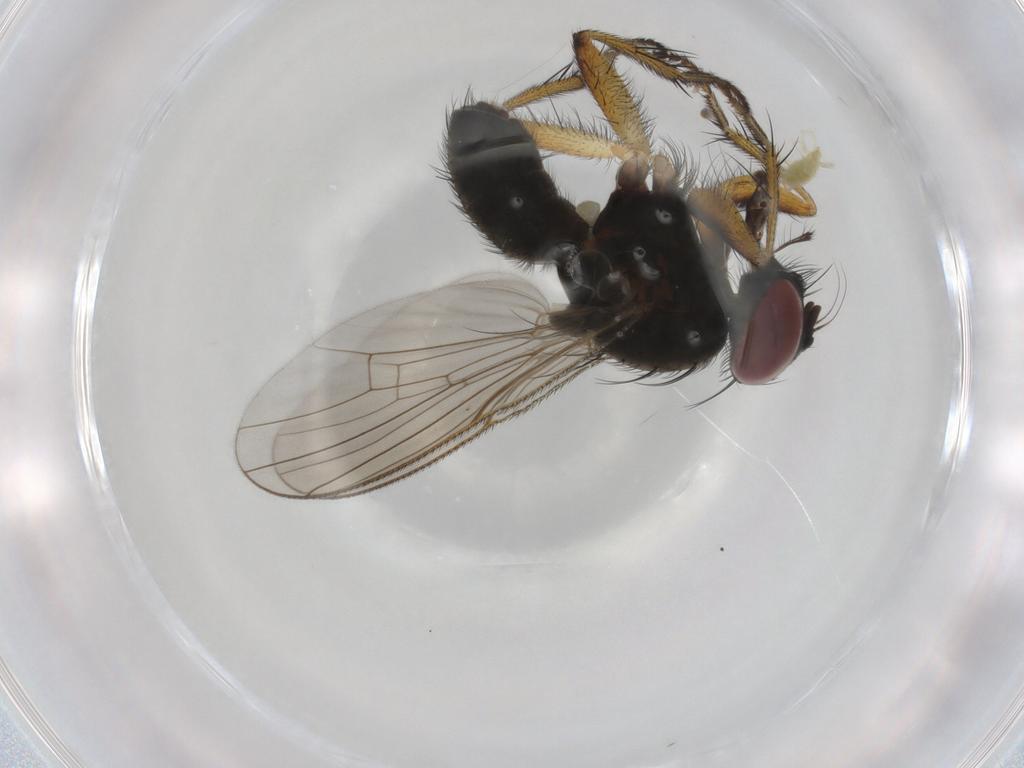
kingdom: Animalia
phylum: Arthropoda
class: Insecta
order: Diptera
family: Muscidae
